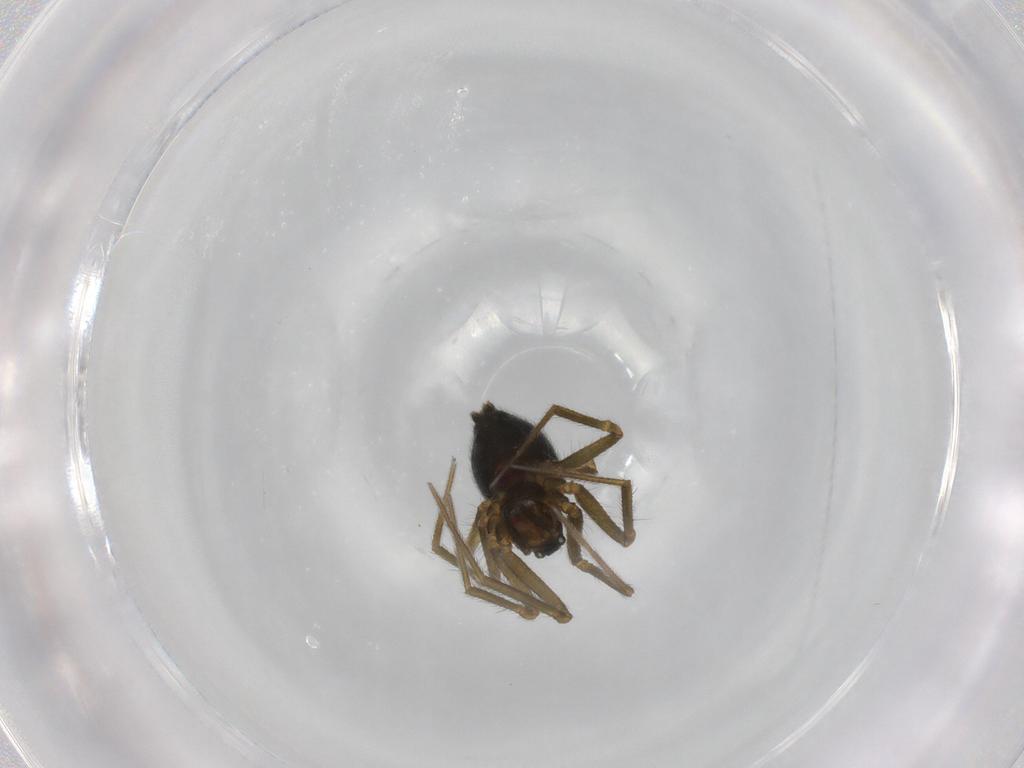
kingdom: Animalia
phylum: Arthropoda
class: Arachnida
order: Araneae
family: Linyphiidae
